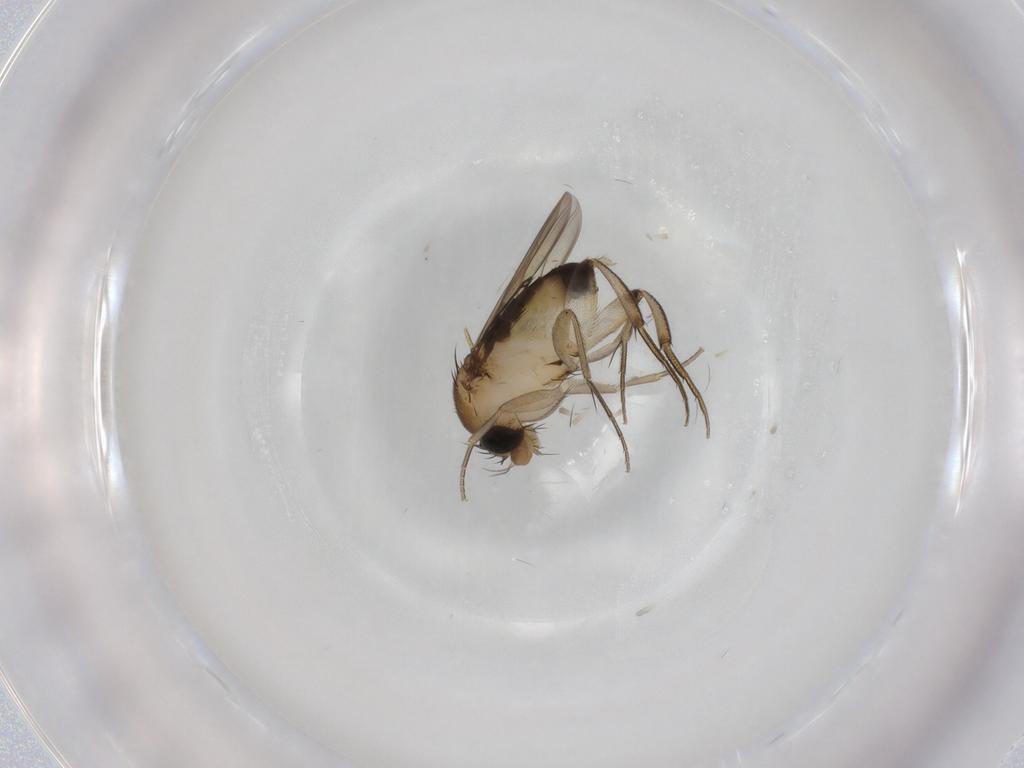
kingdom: Animalia
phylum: Arthropoda
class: Insecta
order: Diptera
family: Phoridae
